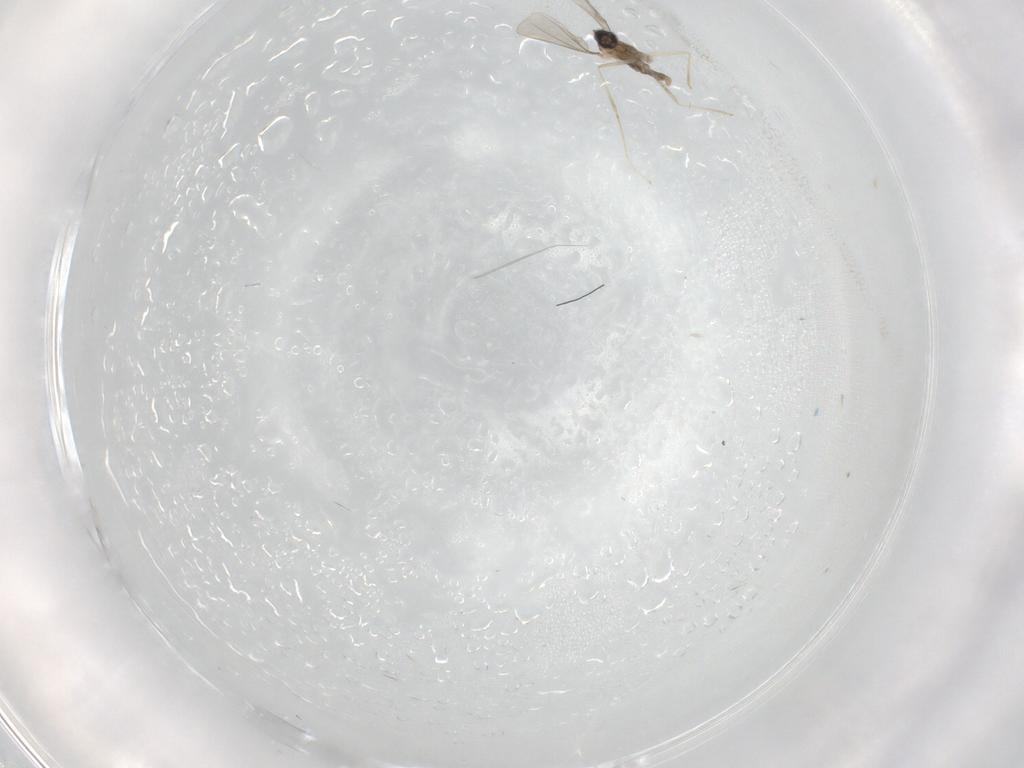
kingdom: Animalia
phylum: Arthropoda
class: Insecta
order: Diptera
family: Cecidomyiidae
